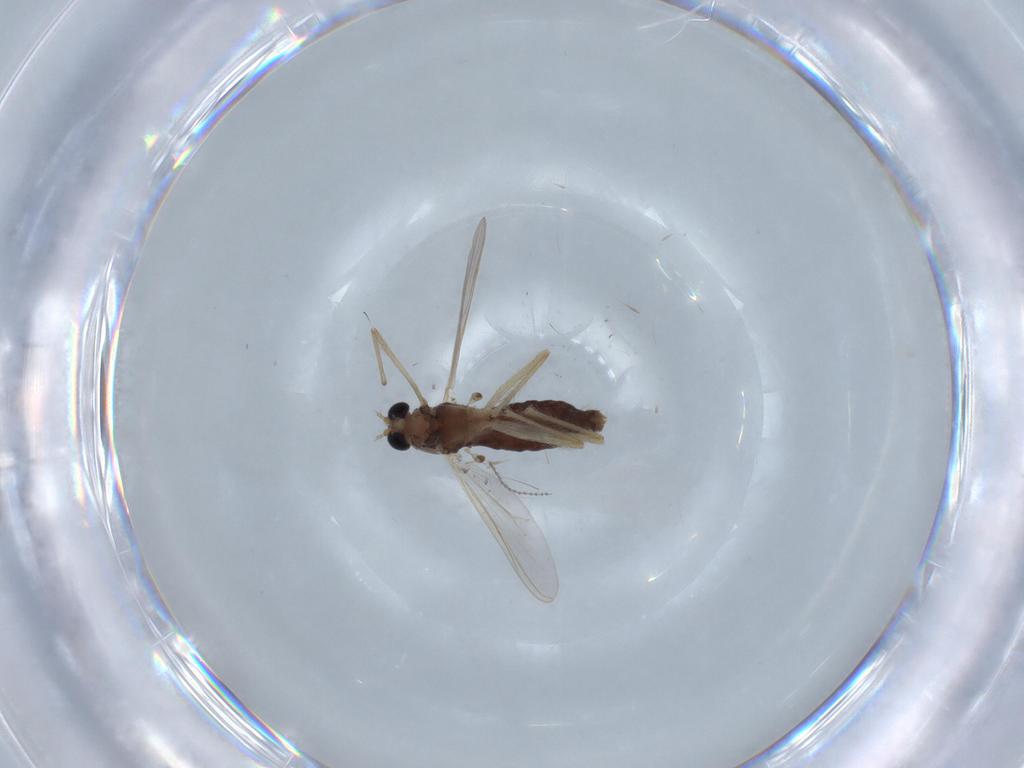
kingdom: Animalia
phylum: Arthropoda
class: Insecta
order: Diptera
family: Chironomidae
